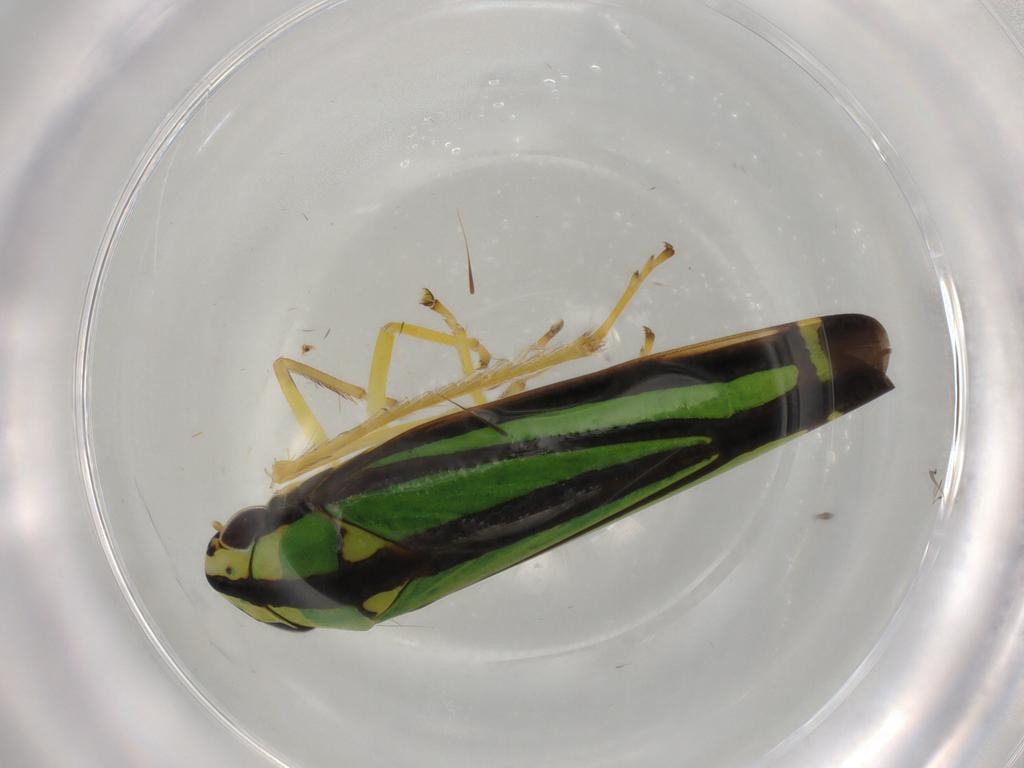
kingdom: Animalia
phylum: Arthropoda
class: Insecta
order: Hemiptera
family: Cicadellidae
